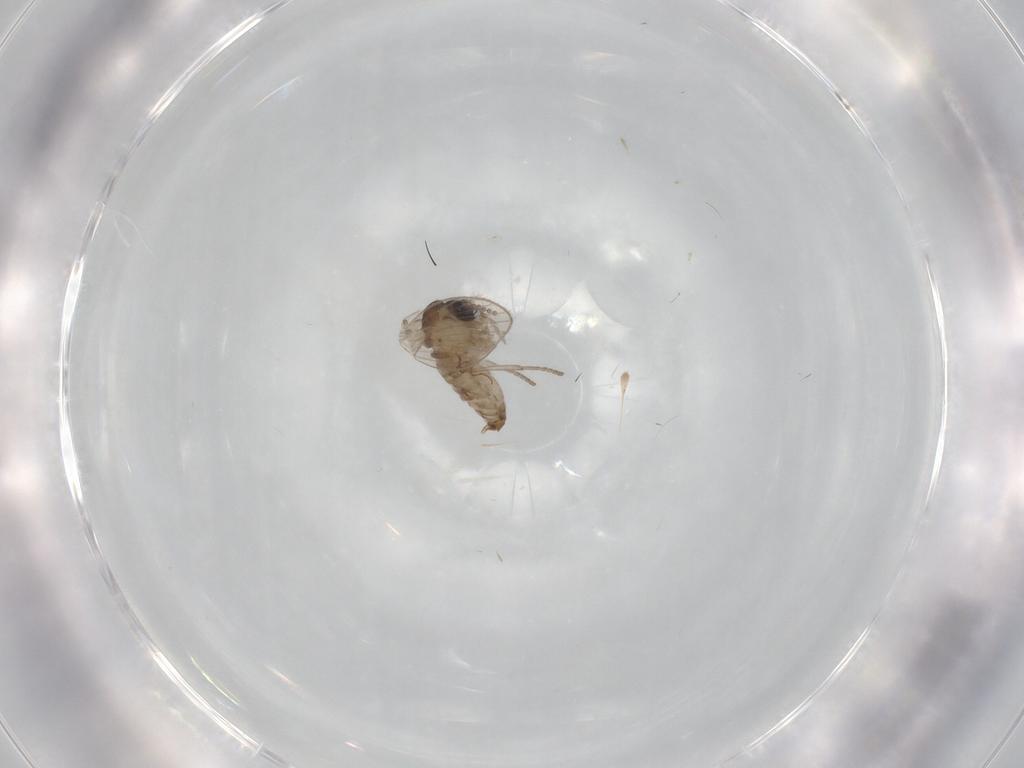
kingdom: Animalia
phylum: Arthropoda
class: Insecta
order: Diptera
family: Psychodidae
